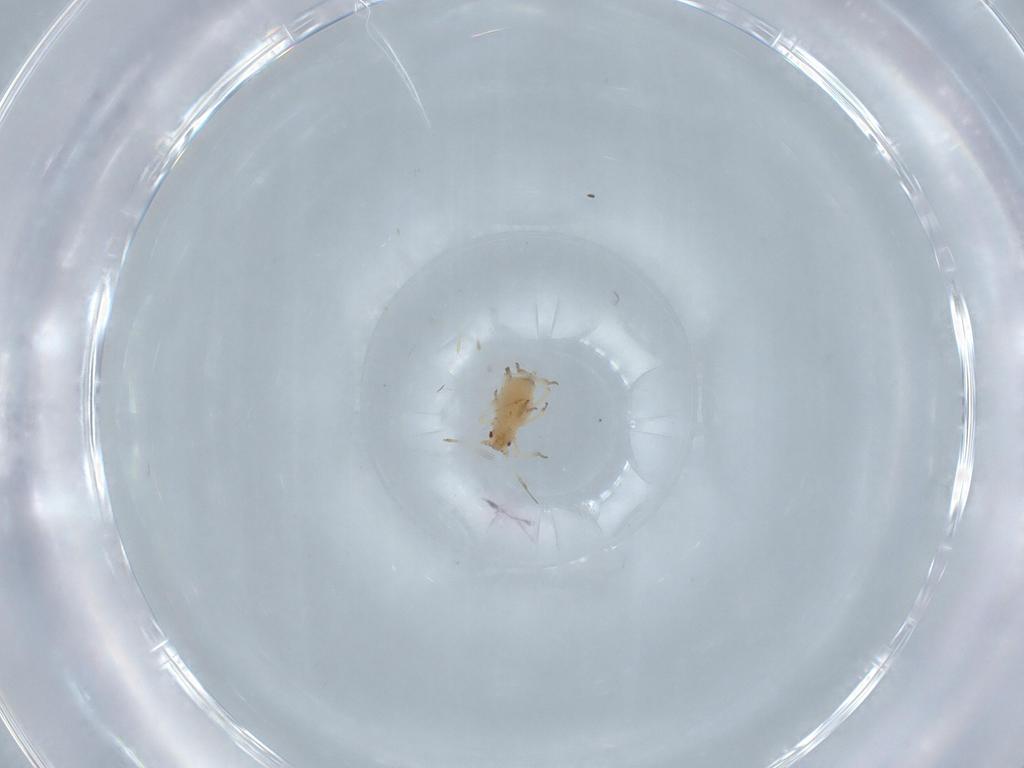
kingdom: Animalia
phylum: Arthropoda
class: Insecta
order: Hemiptera
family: Aphididae
